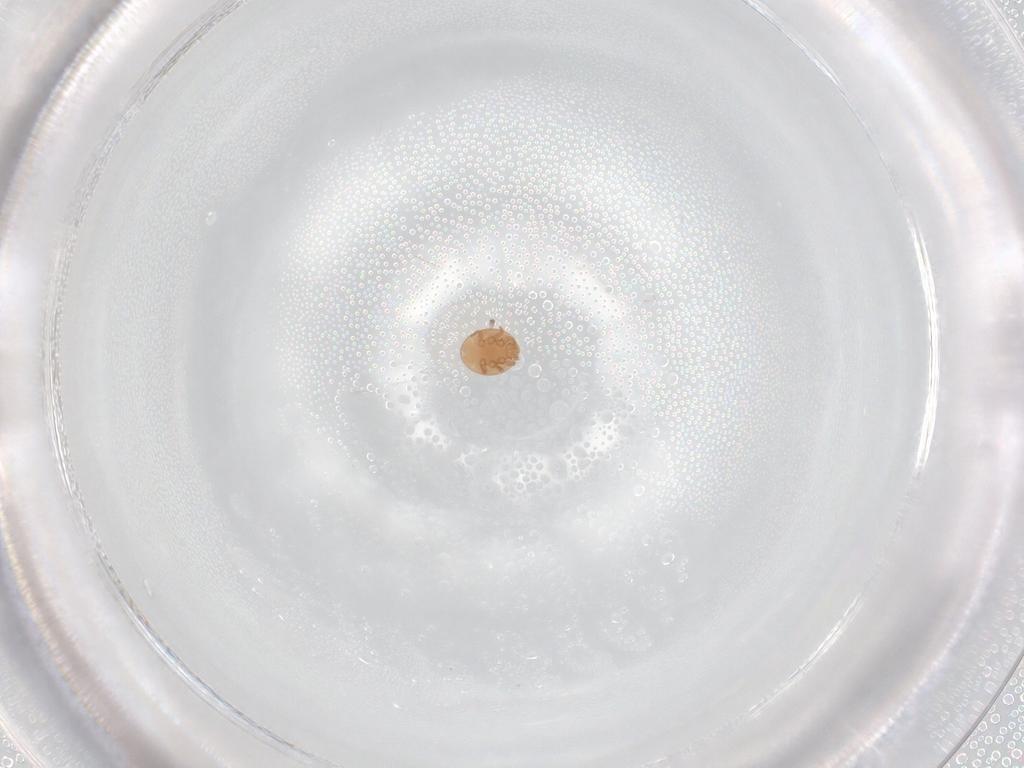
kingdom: Animalia
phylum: Arthropoda
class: Arachnida
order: Mesostigmata
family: Trematuridae
